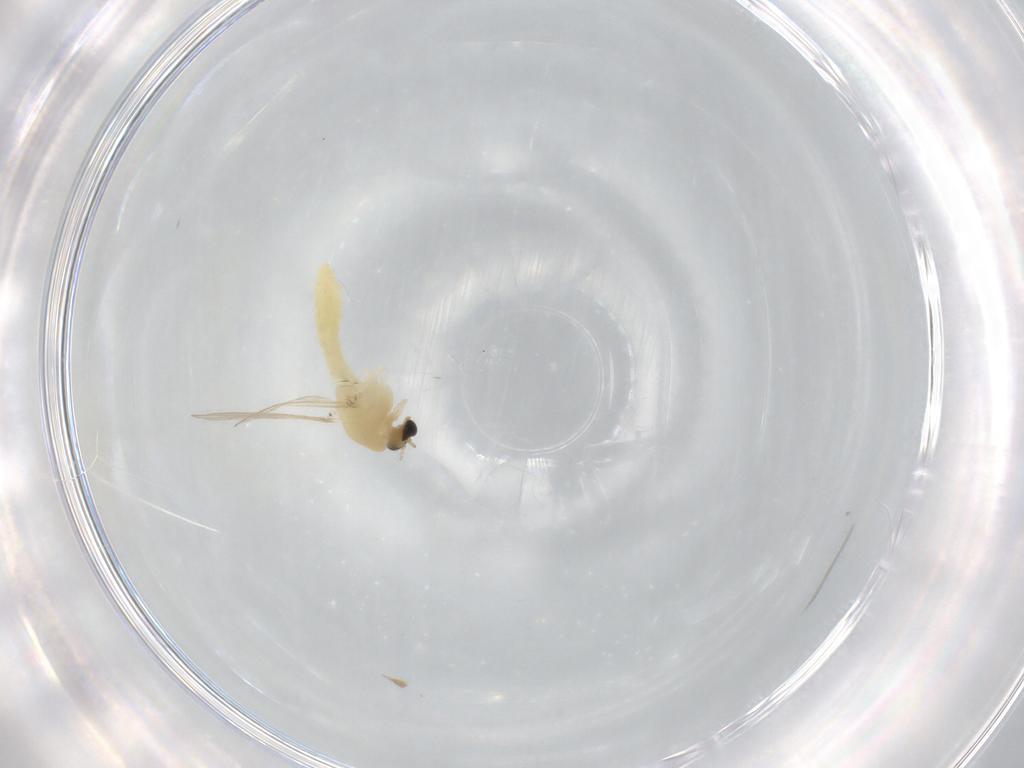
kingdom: Animalia
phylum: Arthropoda
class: Insecta
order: Diptera
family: Chironomidae
